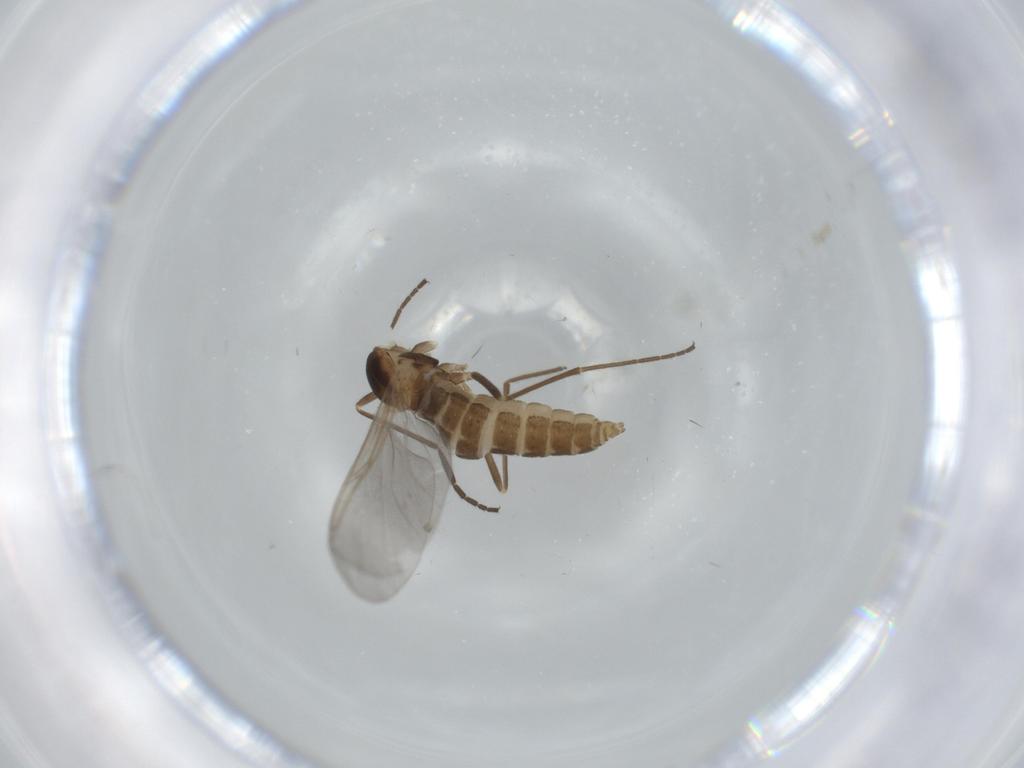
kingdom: Animalia
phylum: Arthropoda
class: Insecta
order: Diptera
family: Cecidomyiidae
